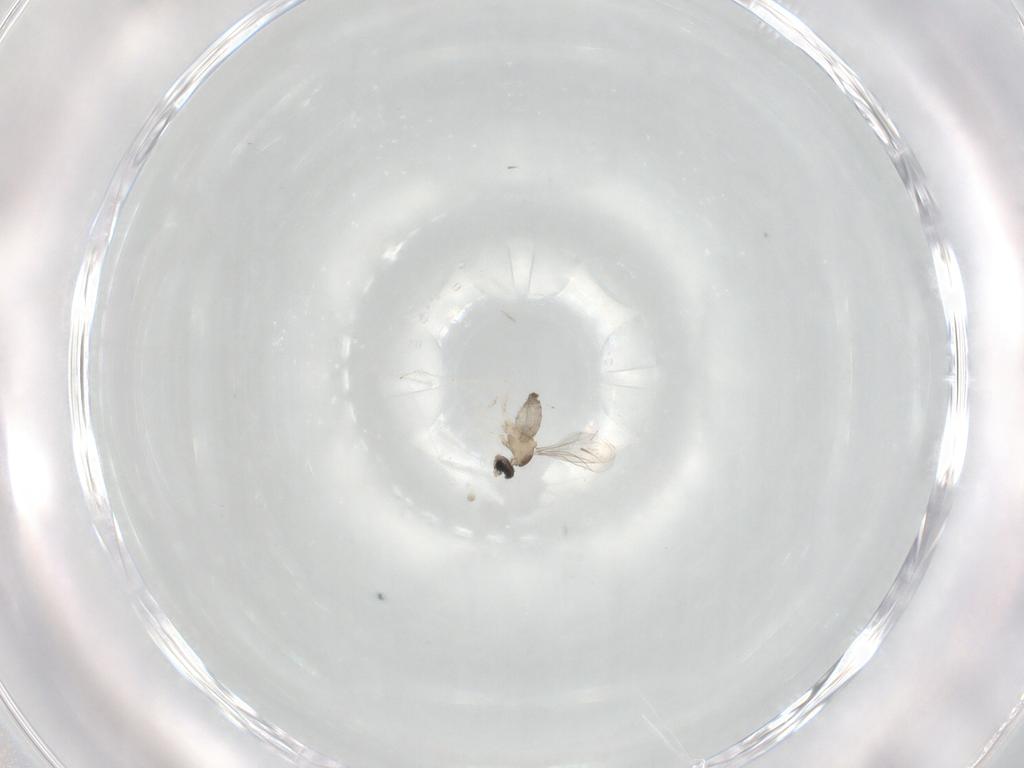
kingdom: Animalia
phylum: Arthropoda
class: Insecta
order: Diptera
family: Cecidomyiidae
